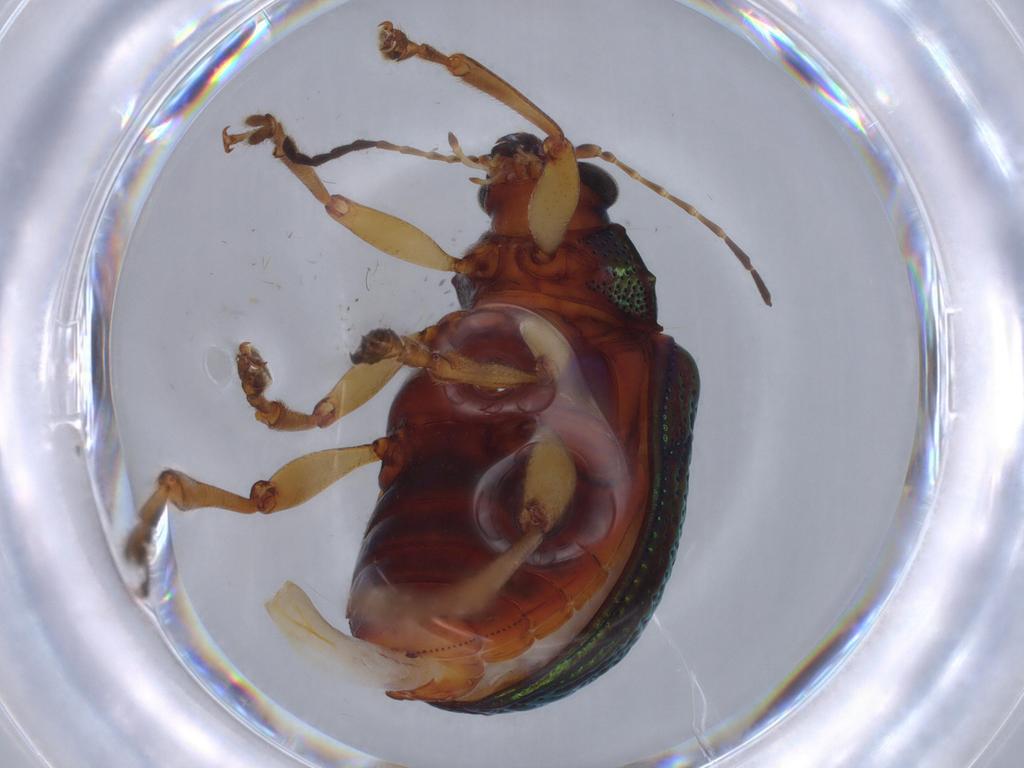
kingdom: Animalia
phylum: Arthropoda
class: Insecta
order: Coleoptera
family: Chrysomelidae
